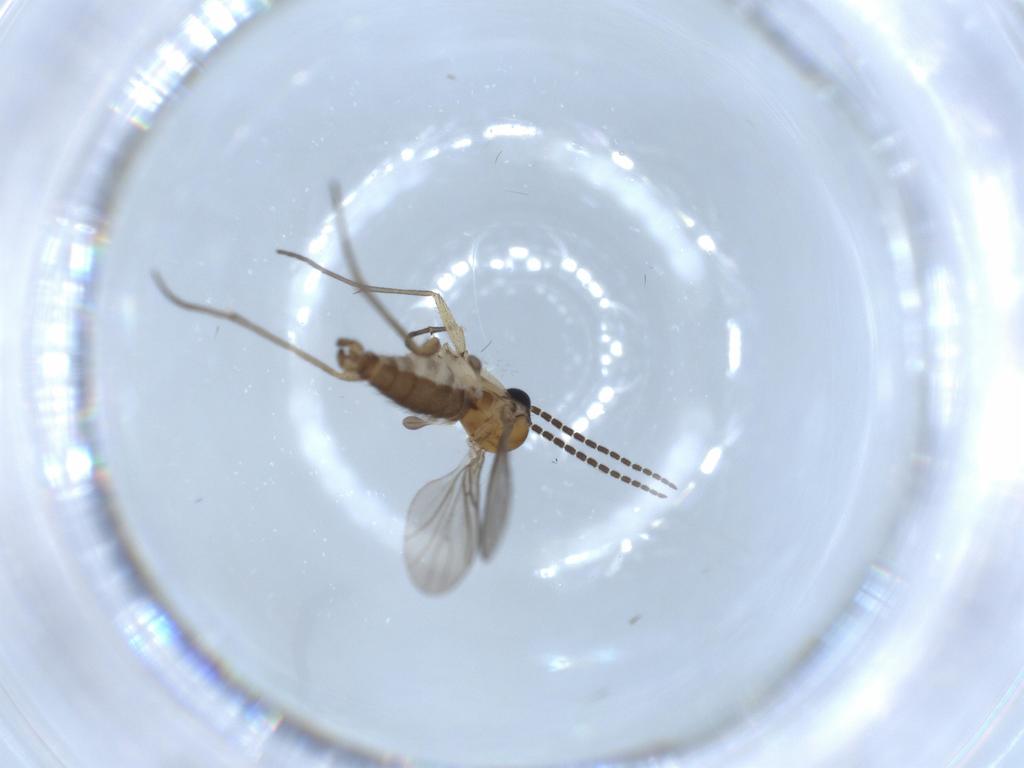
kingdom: Animalia
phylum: Arthropoda
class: Insecta
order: Diptera
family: Sciaridae
